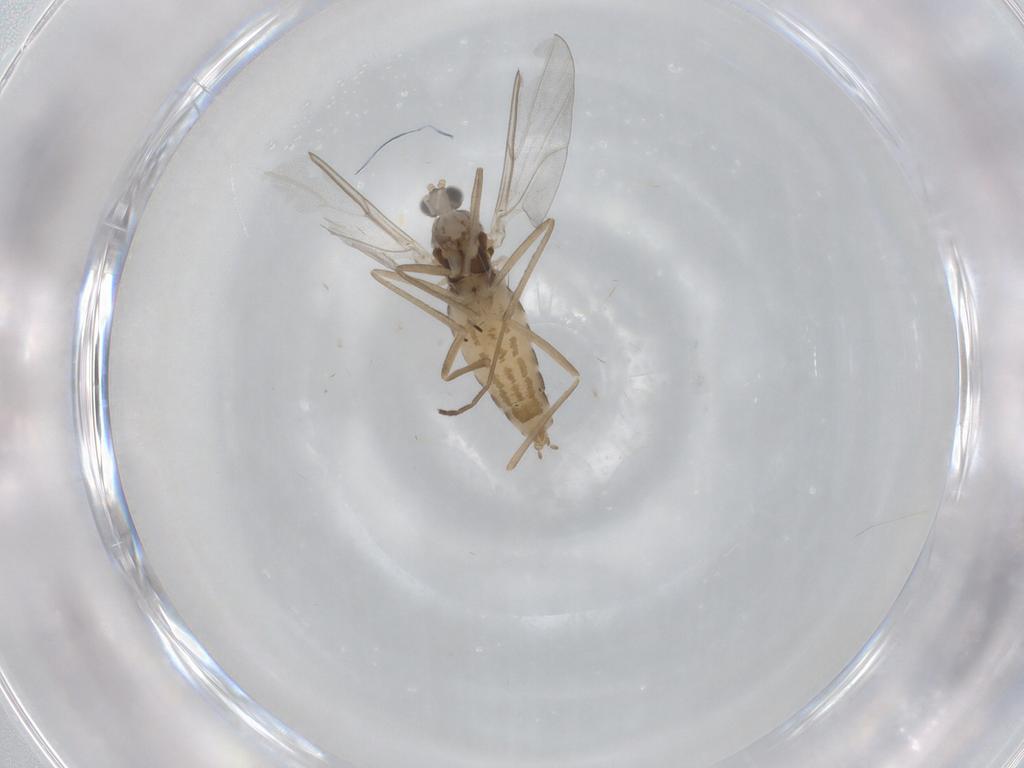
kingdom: Animalia
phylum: Arthropoda
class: Insecta
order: Diptera
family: Cecidomyiidae
